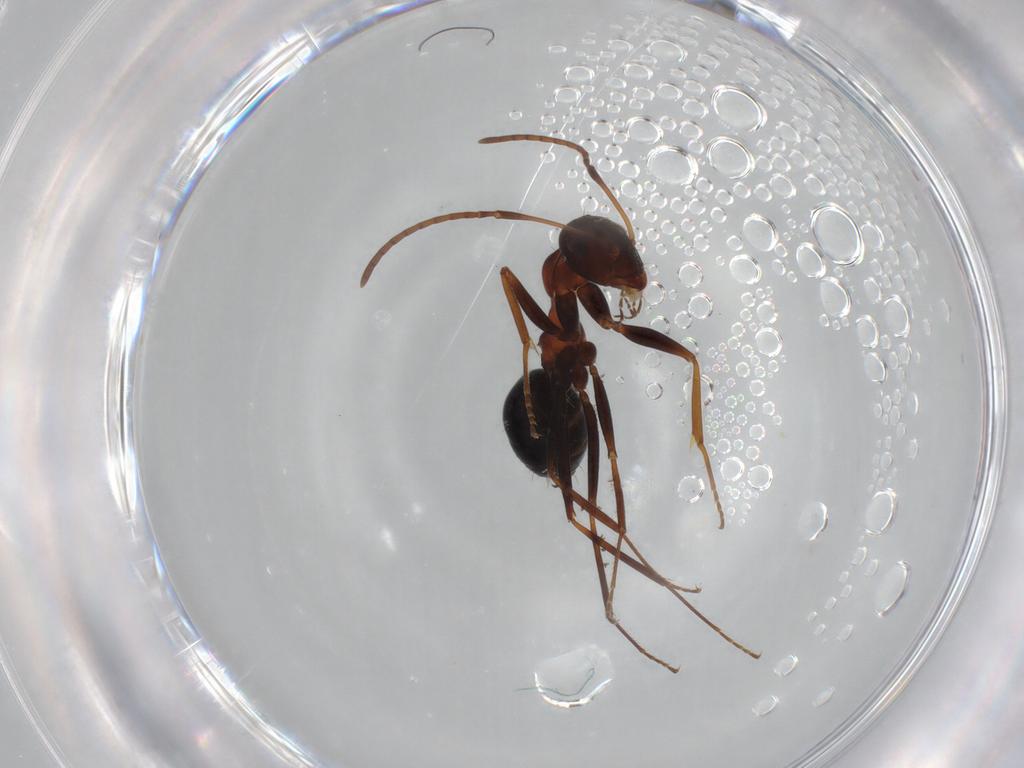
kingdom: Animalia
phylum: Arthropoda
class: Insecta
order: Hymenoptera
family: Formicidae
